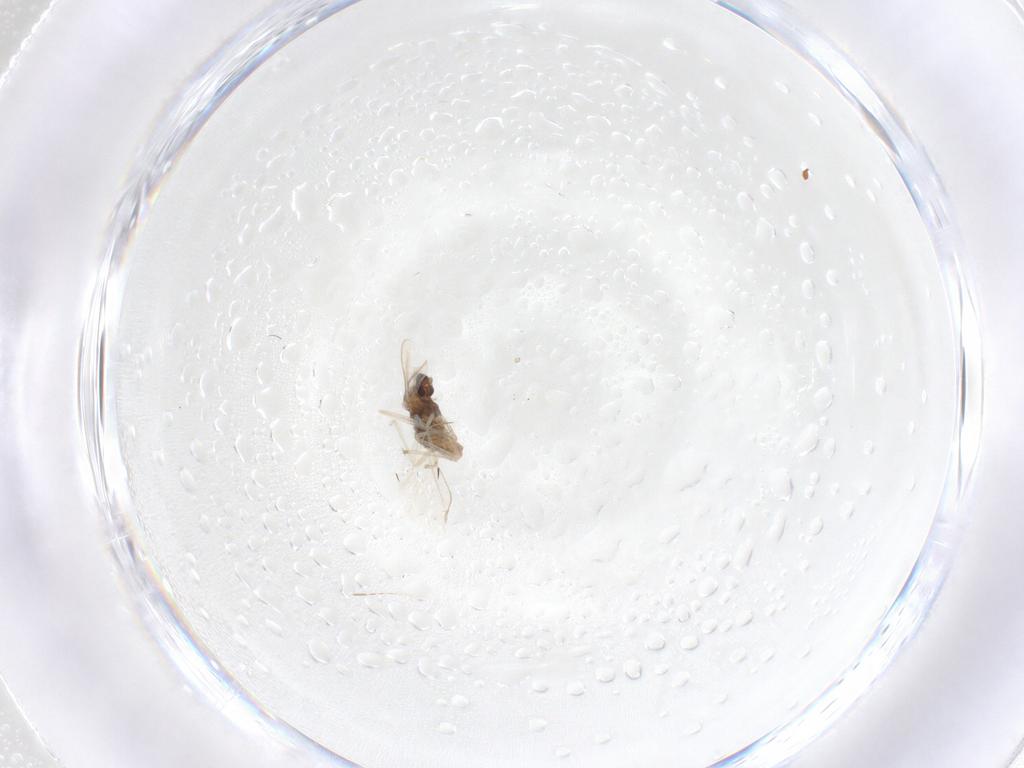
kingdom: Animalia
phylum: Arthropoda
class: Insecta
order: Diptera
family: Cecidomyiidae
